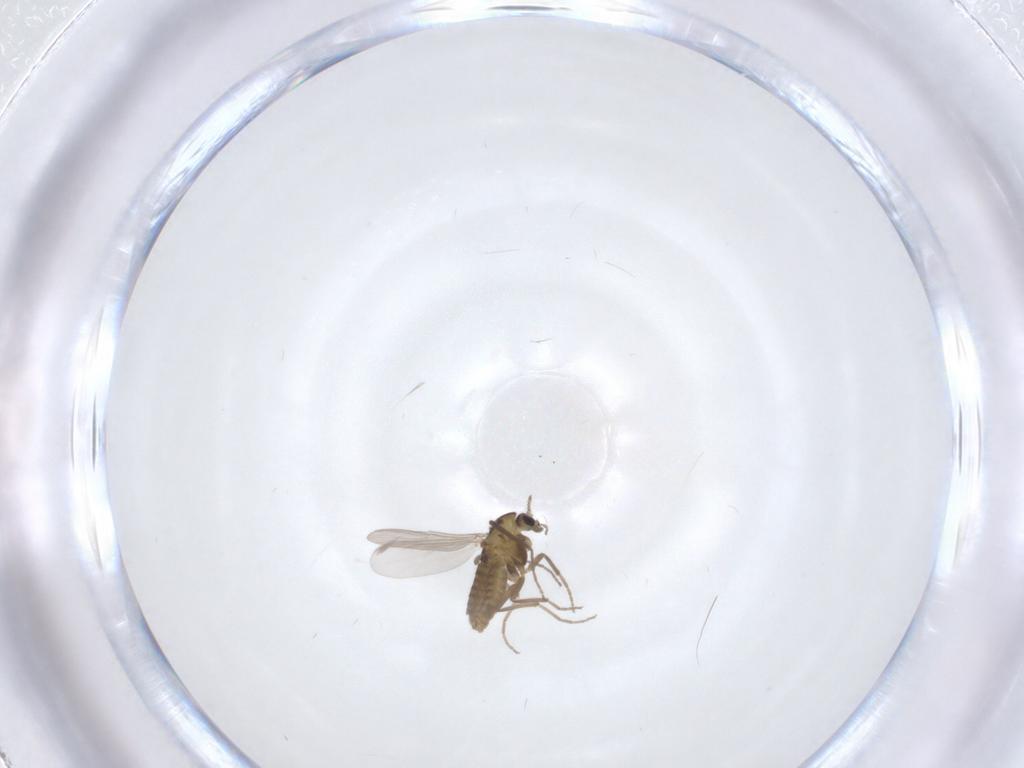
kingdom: Animalia
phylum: Arthropoda
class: Insecta
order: Diptera
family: Chironomidae
